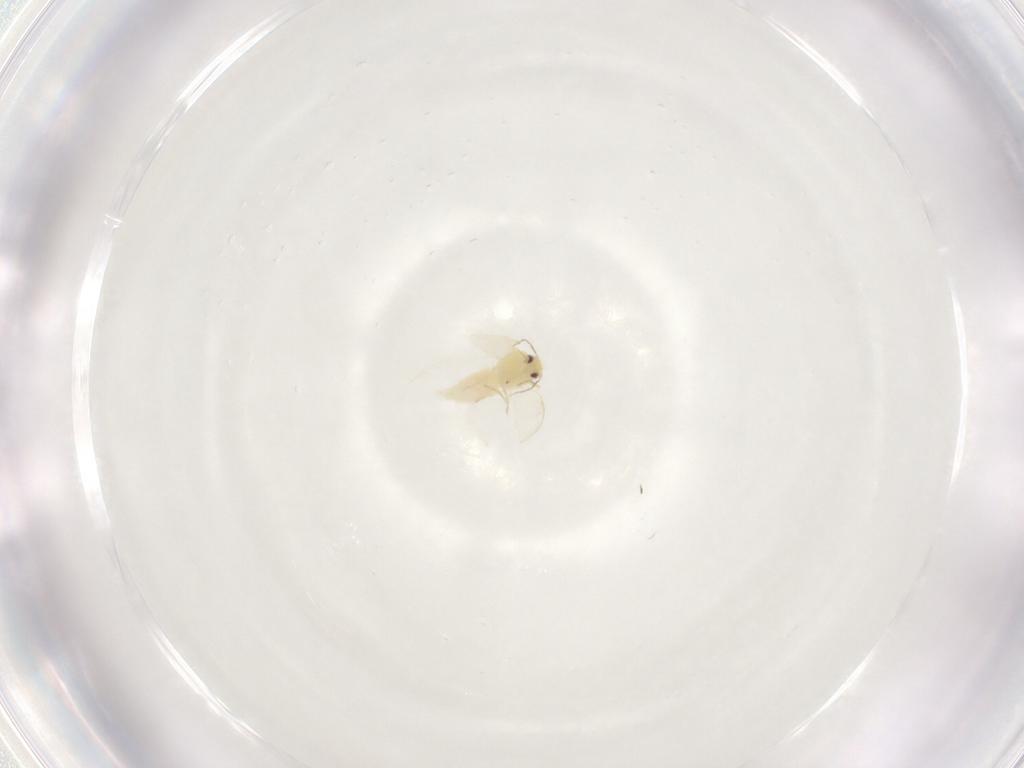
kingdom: Animalia
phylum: Arthropoda
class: Insecta
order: Hemiptera
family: Aleyrodidae
